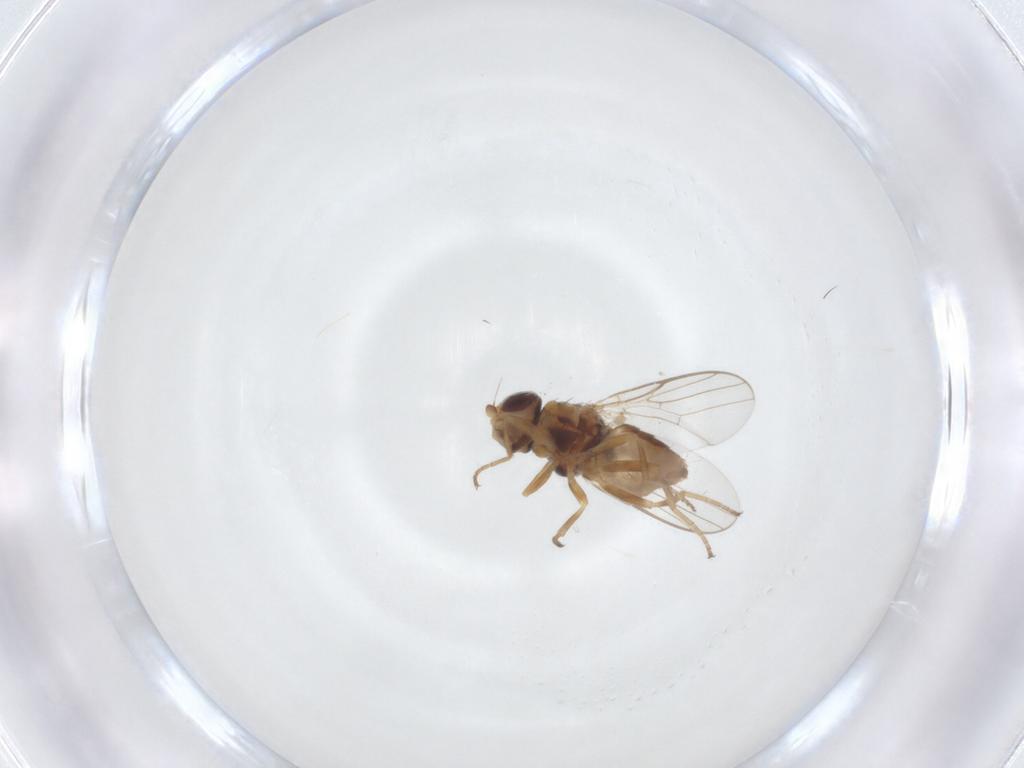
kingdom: Animalia
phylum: Arthropoda
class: Insecta
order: Diptera
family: Chloropidae
